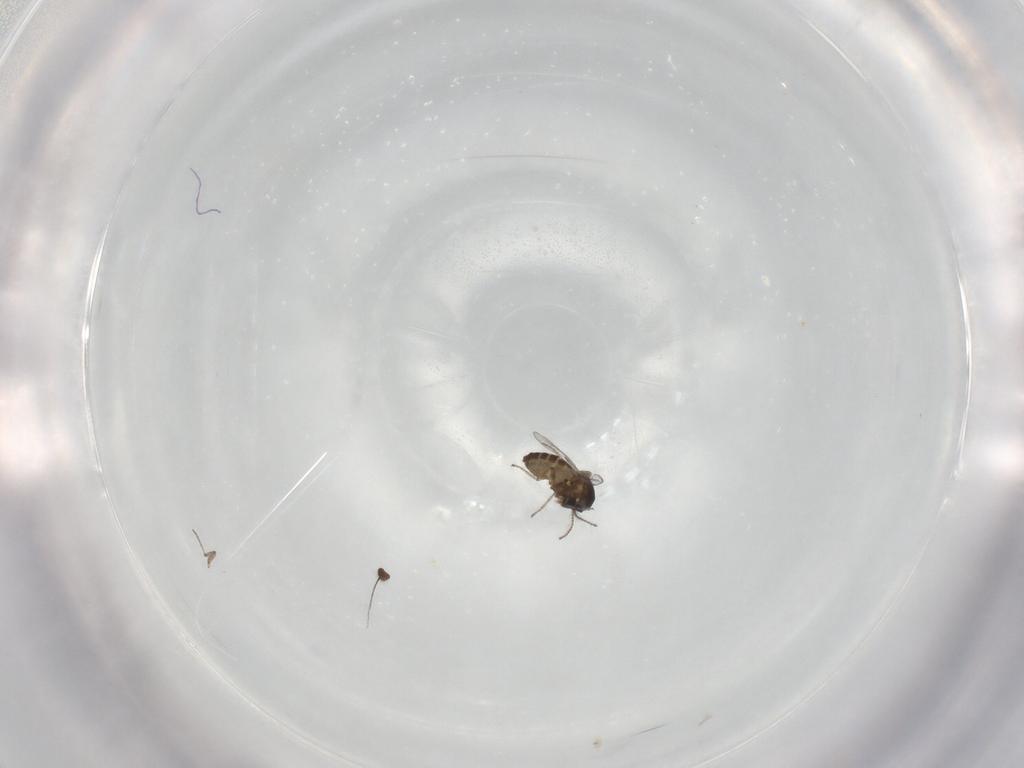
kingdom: Animalia
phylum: Arthropoda
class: Insecta
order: Diptera
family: Ceratopogonidae
